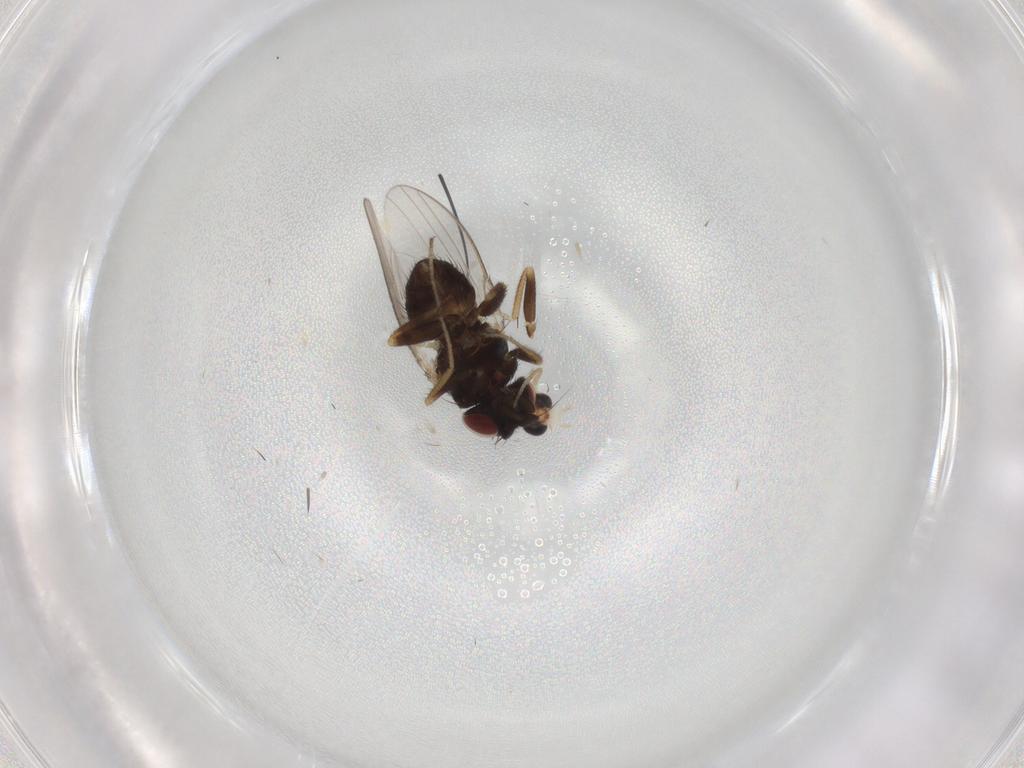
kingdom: Animalia
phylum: Arthropoda
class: Insecta
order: Diptera
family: Milichiidae
